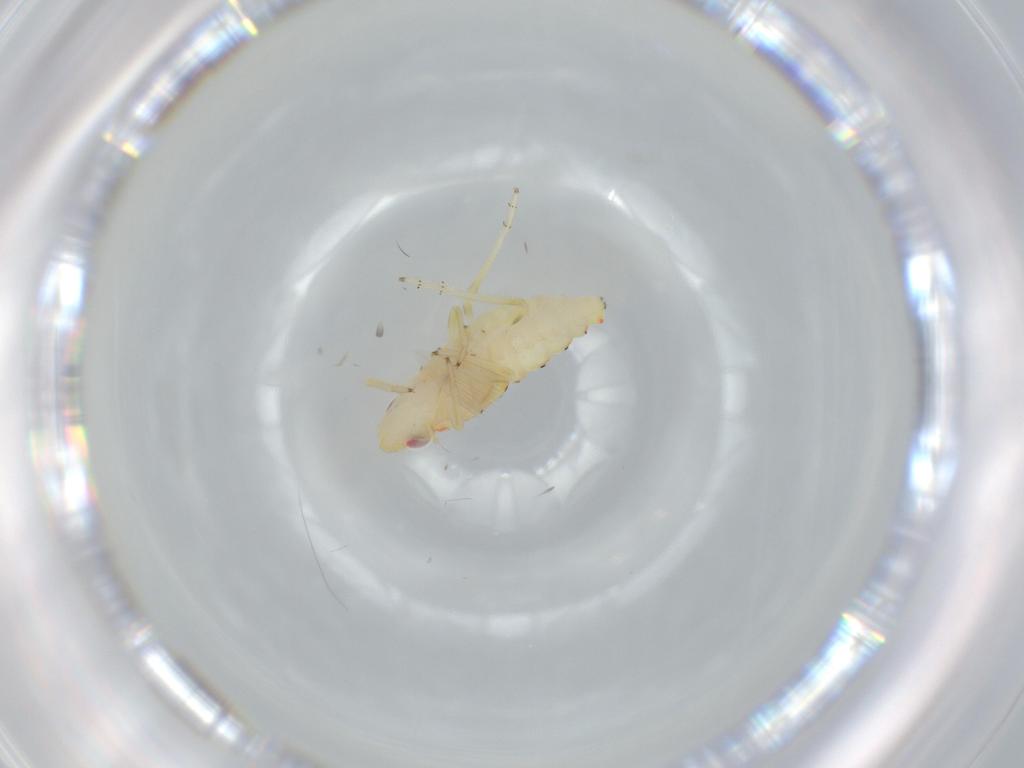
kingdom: Animalia
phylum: Arthropoda
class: Insecta
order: Hemiptera
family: Tropiduchidae
